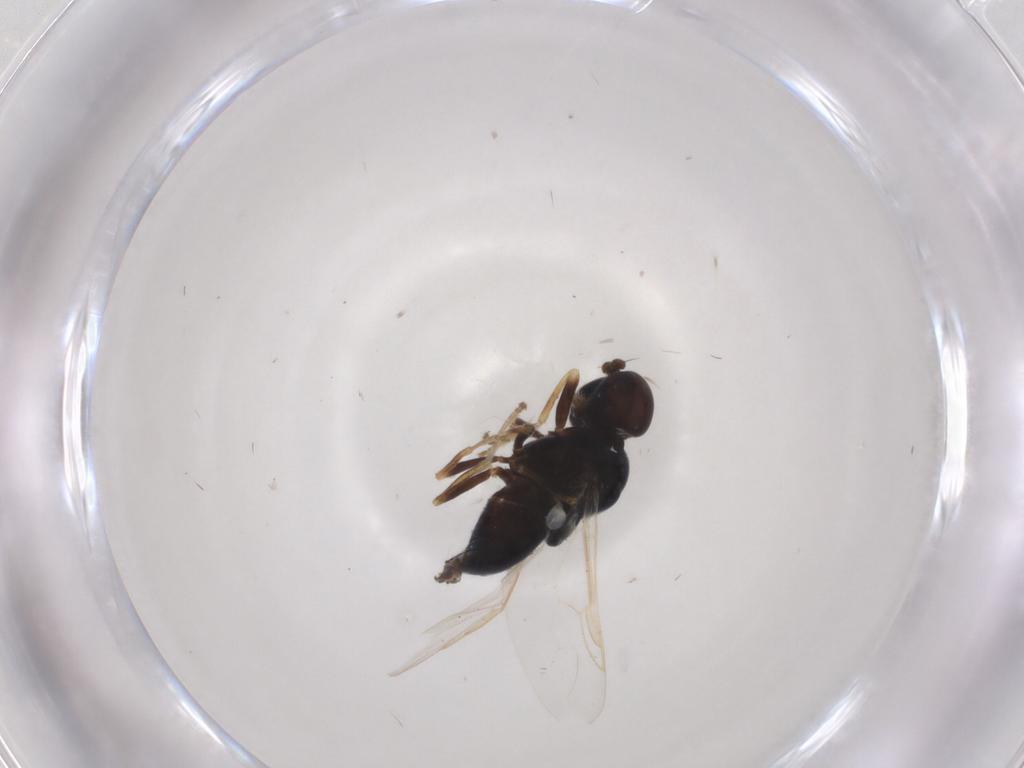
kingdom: Animalia
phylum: Arthropoda
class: Insecta
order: Diptera
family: Stratiomyidae
